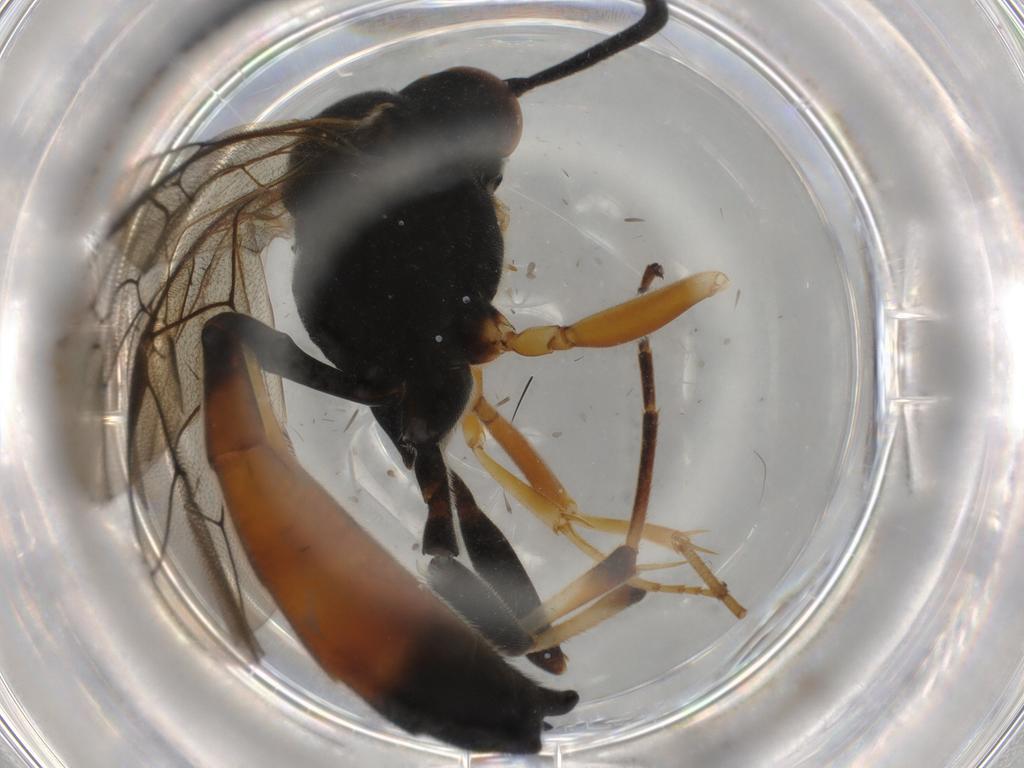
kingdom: Animalia
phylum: Arthropoda
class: Insecta
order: Hymenoptera
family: Ichneumonidae
